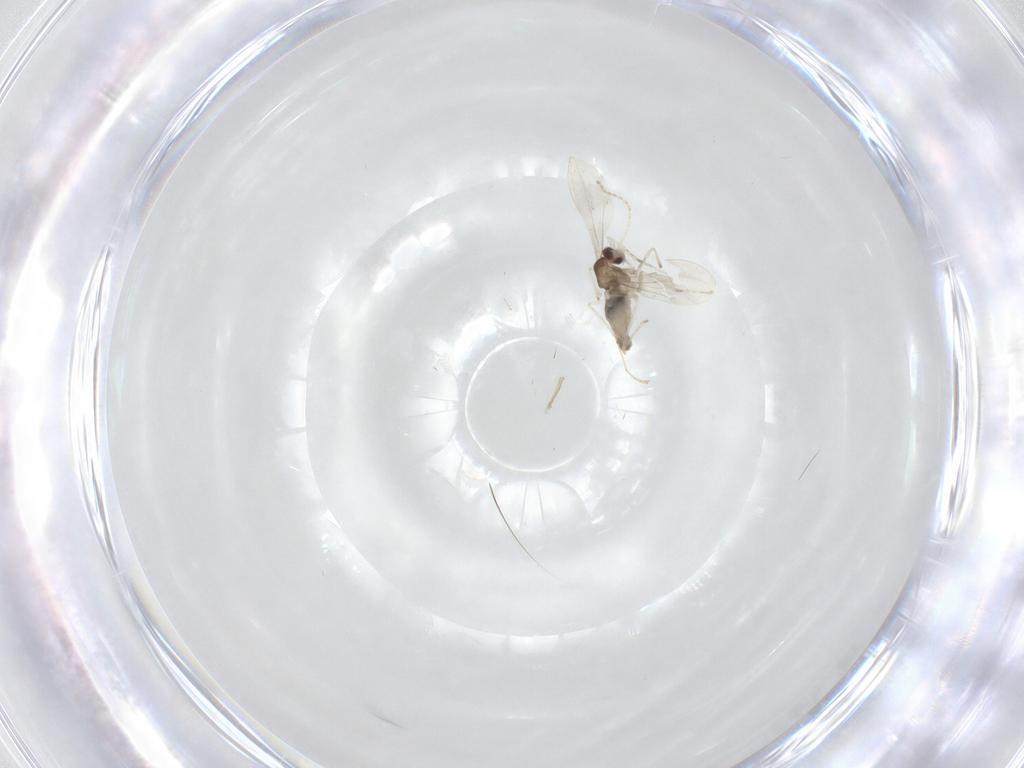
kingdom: Animalia
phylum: Arthropoda
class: Insecta
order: Diptera
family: Cecidomyiidae
